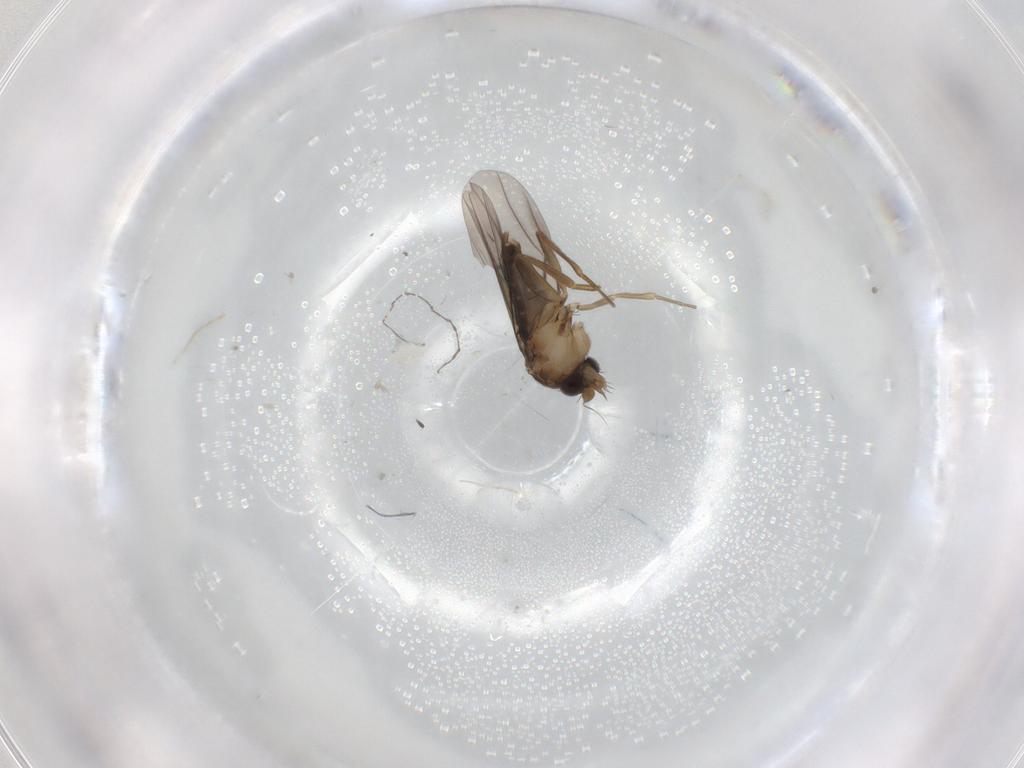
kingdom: Animalia
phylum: Arthropoda
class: Insecta
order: Diptera
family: Phoridae
